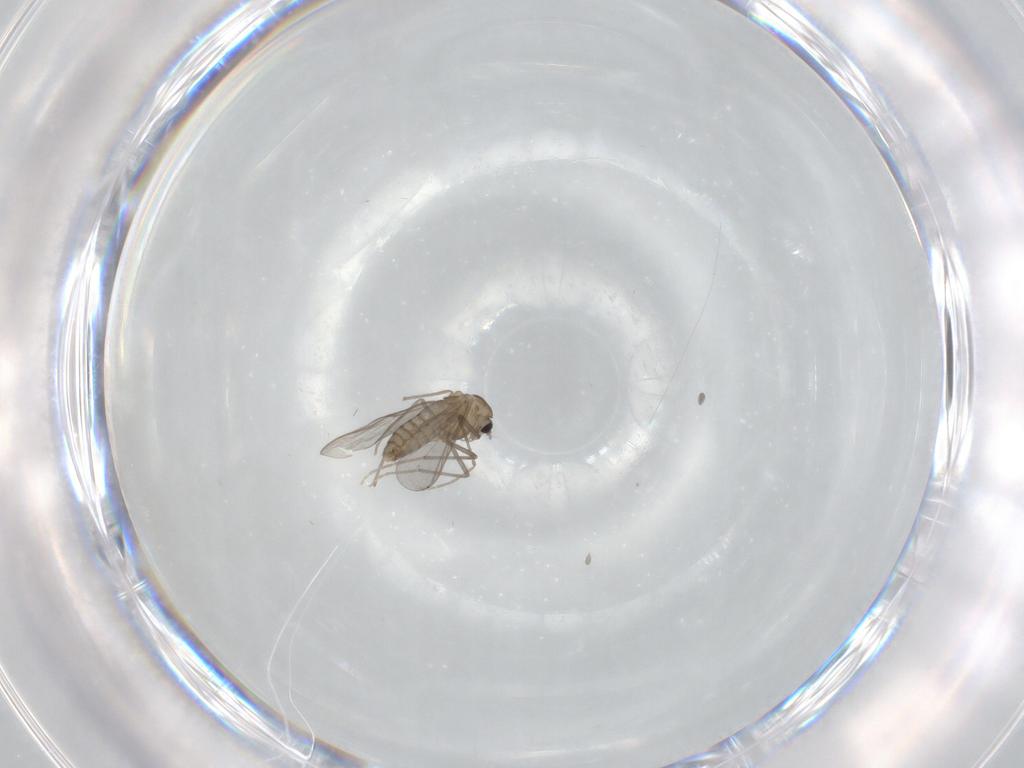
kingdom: Animalia
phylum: Arthropoda
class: Insecta
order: Diptera
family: Chironomidae
